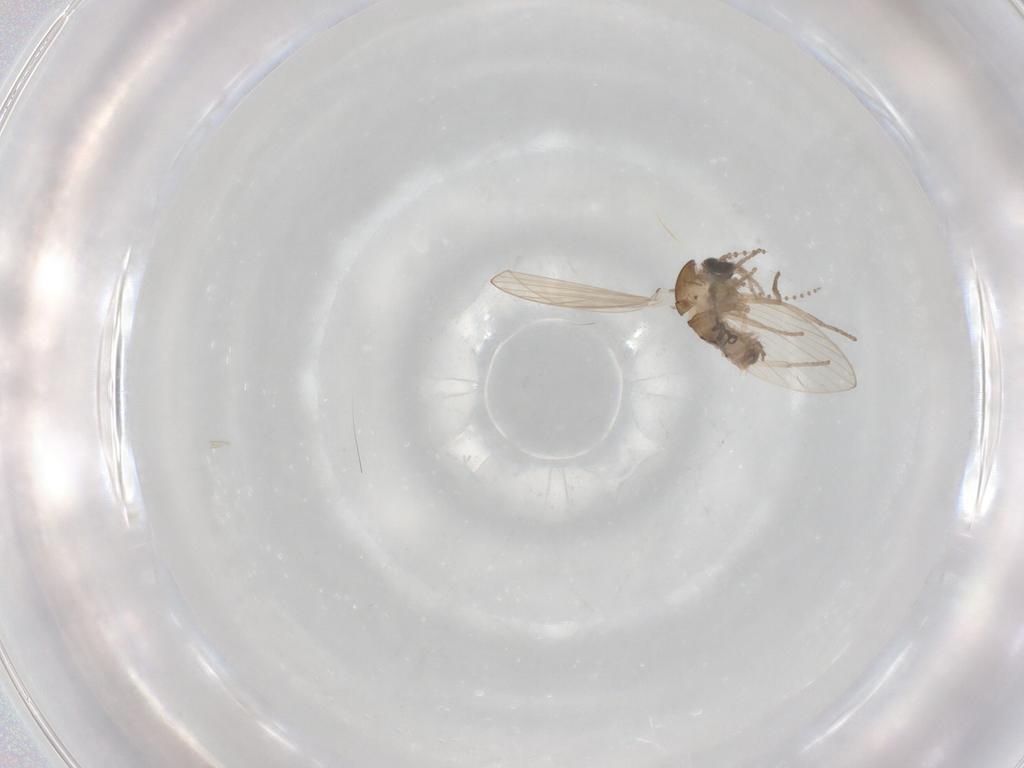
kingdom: Animalia
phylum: Arthropoda
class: Insecta
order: Diptera
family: Psychodidae
